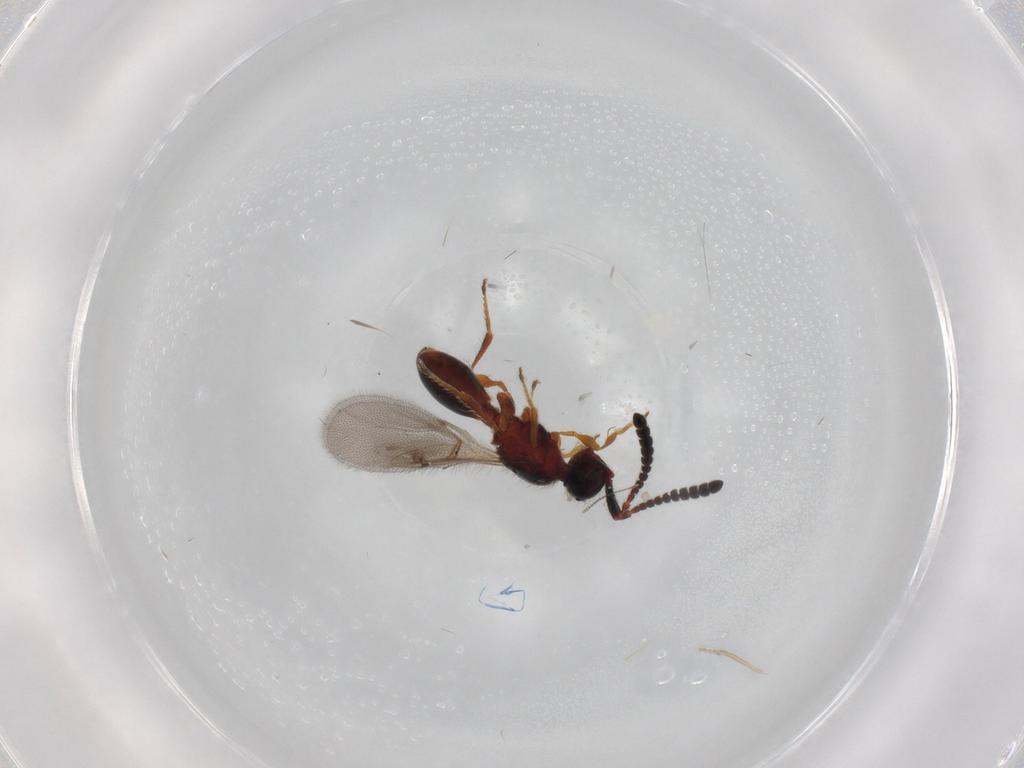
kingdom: Animalia
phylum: Arthropoda
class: Insecta
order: Hymenoptera
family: Diapriidae
